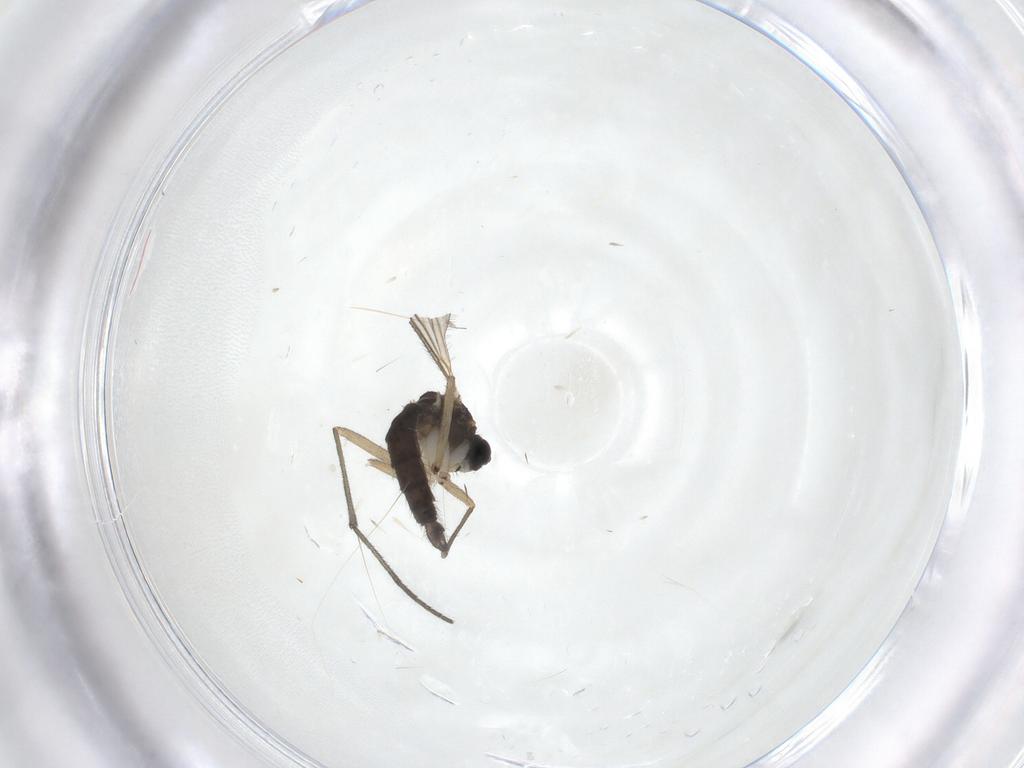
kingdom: Animalia
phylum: Arthropoda
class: Insecta
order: Diptera
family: Sciaridae
